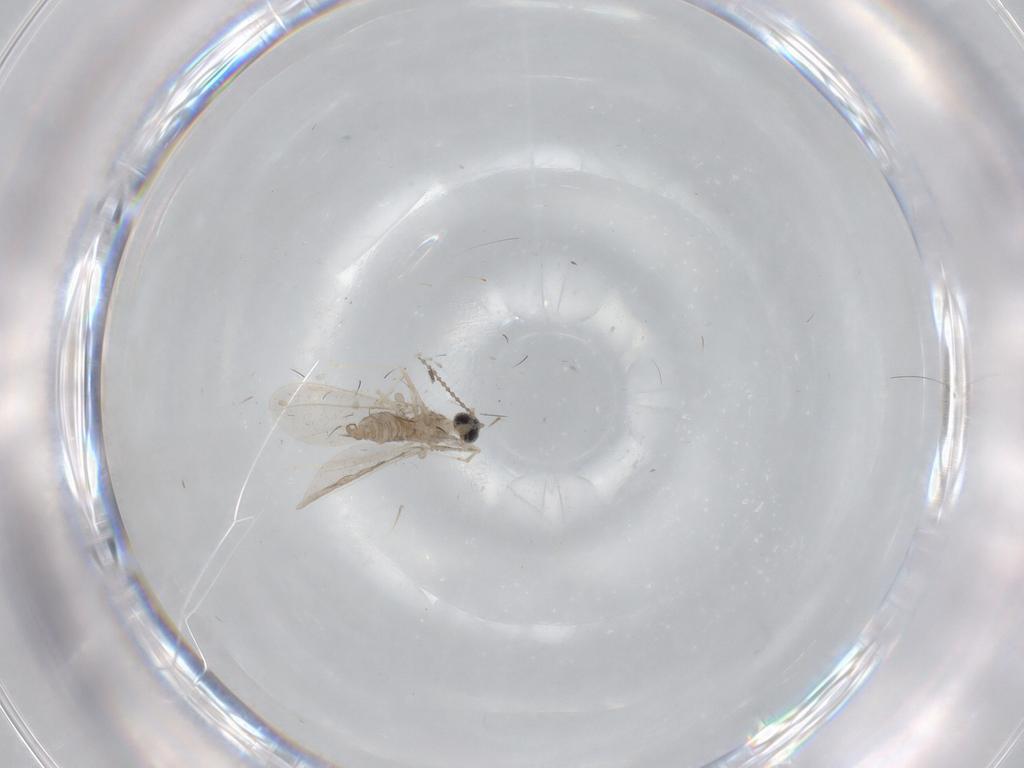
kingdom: Animalia
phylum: Arthropoda
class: Insecta
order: Diptera
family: Cecidomyiidae
